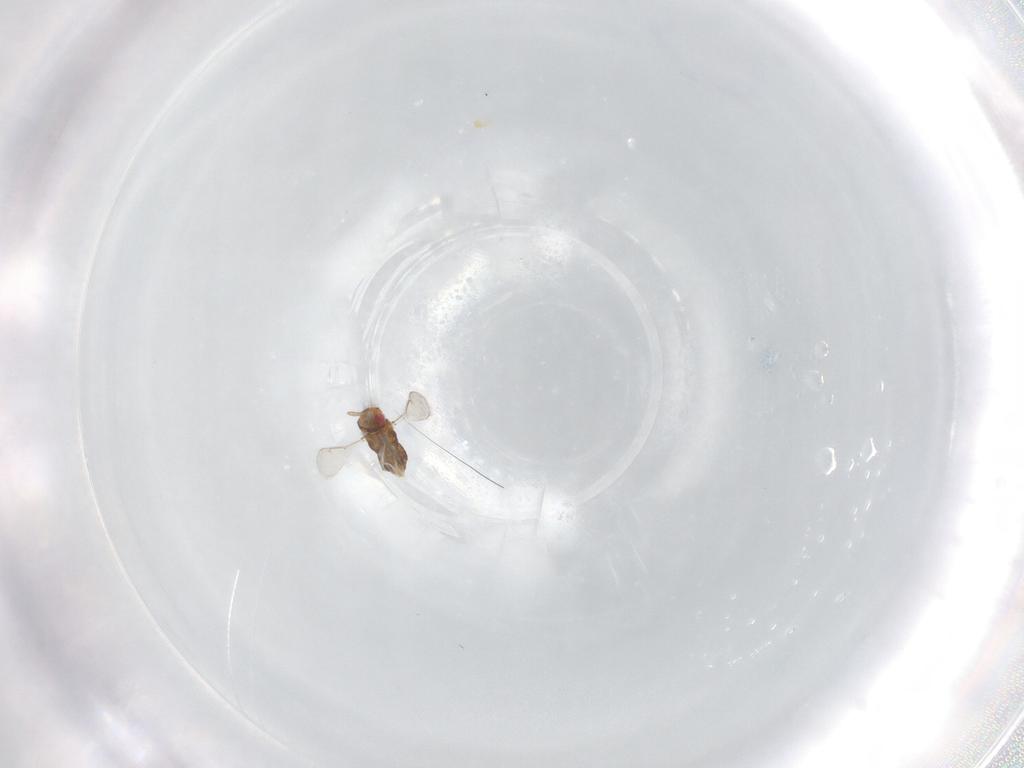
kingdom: Animalia
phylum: Arthropoda
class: Insecta
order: Hymenoptera
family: Aphelinidae
